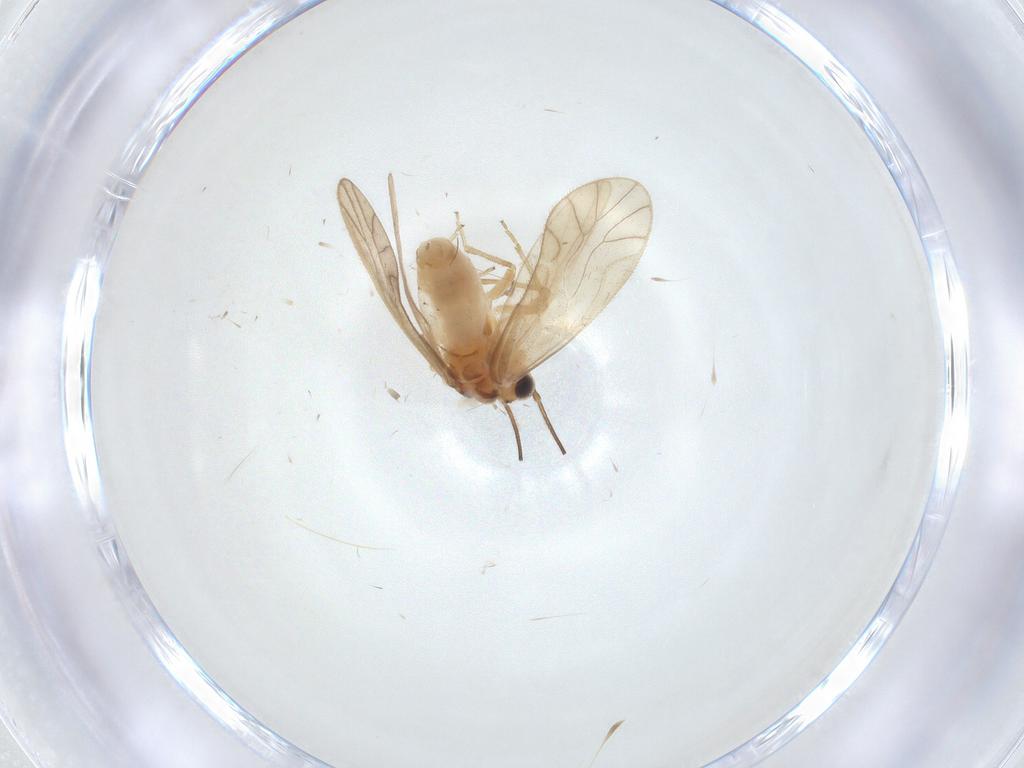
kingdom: Animalia
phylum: Arthropoda
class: Insecta
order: Psocodea
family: Caeciliusidae
